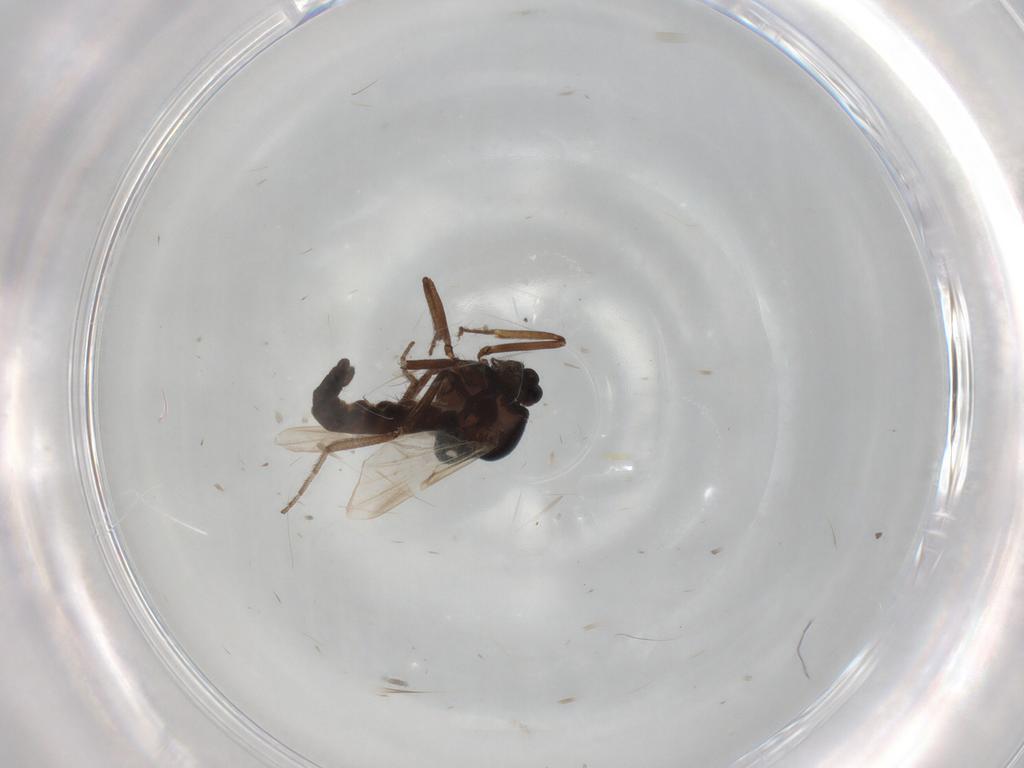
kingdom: Animalia
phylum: Arthropoda
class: Insecta
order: Diptera
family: Ceratopogonidae
